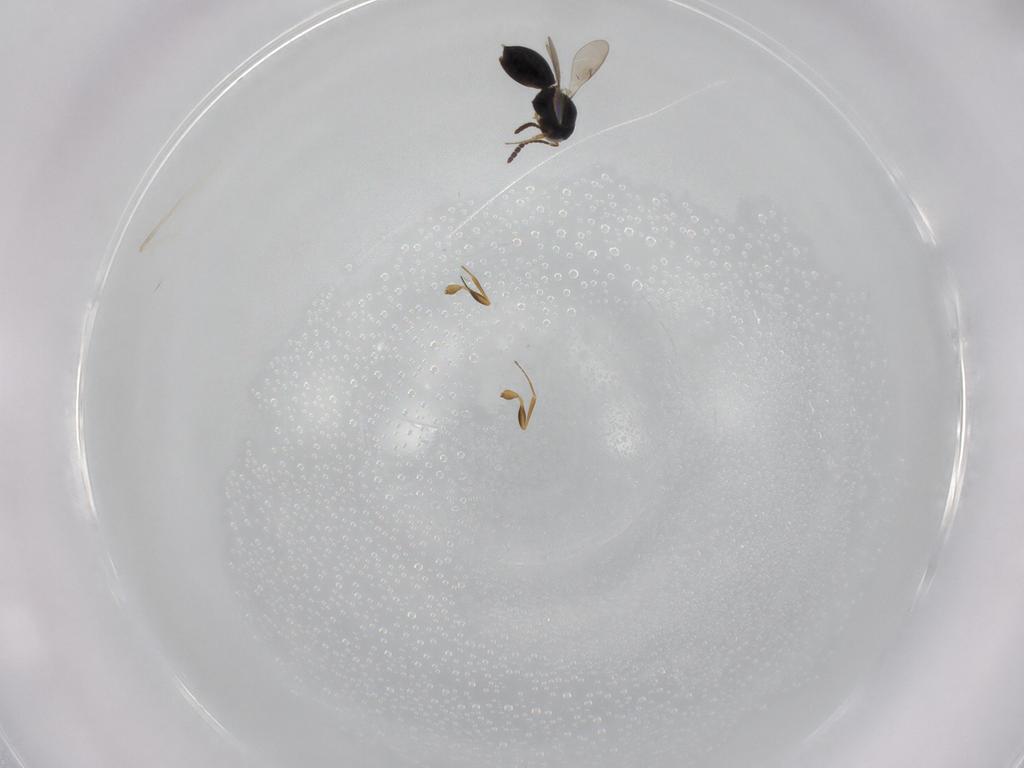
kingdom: Animalia
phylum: Arthropoda
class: Insecta
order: Hymenoptera
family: Scelionidae
